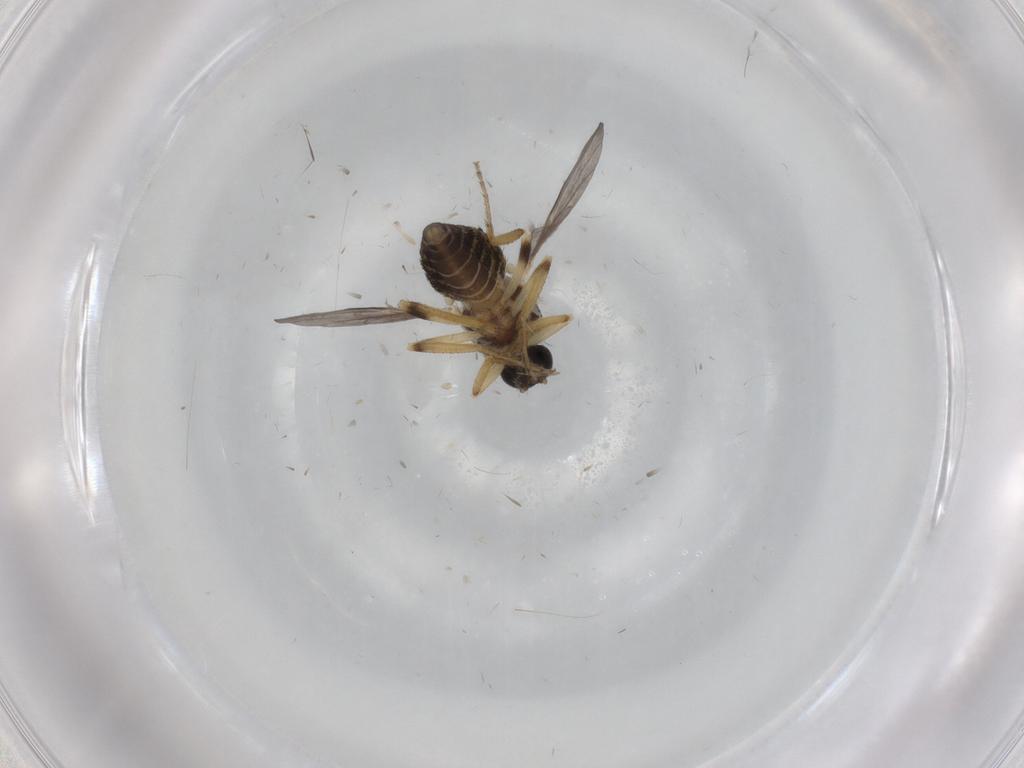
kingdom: Animalia
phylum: Arthropoda
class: Insecta
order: Diptera
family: Ceratopogonidae
